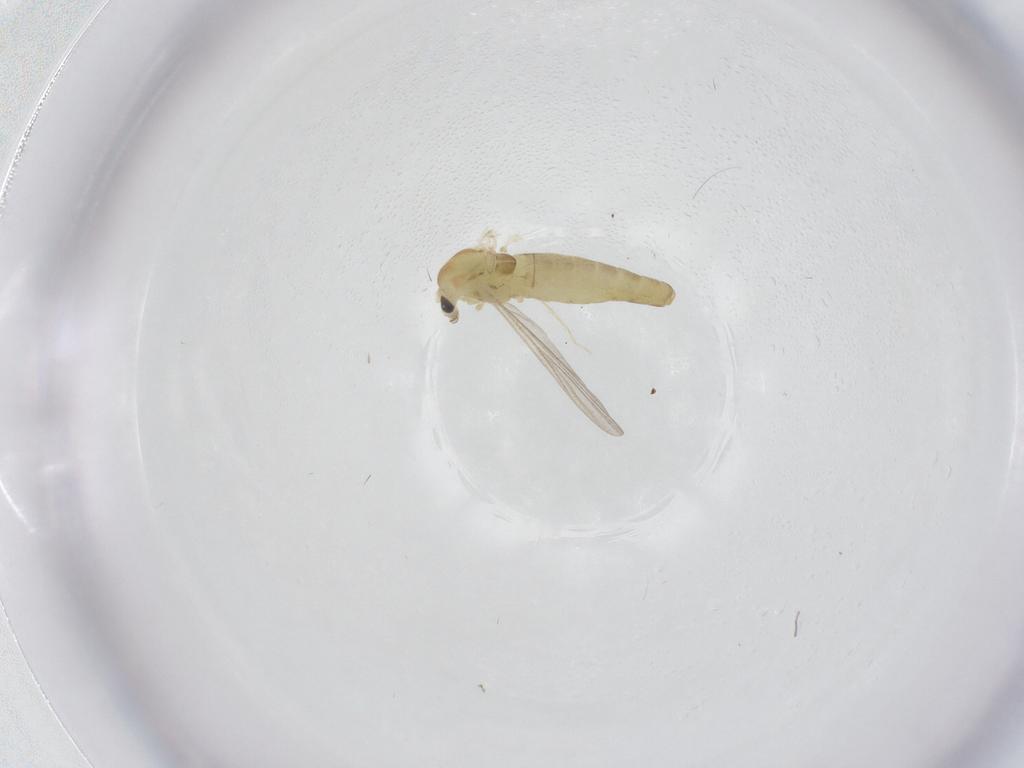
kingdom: Animalia
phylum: Arthropoda
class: Insecta
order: Diptera
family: Chironomidae
